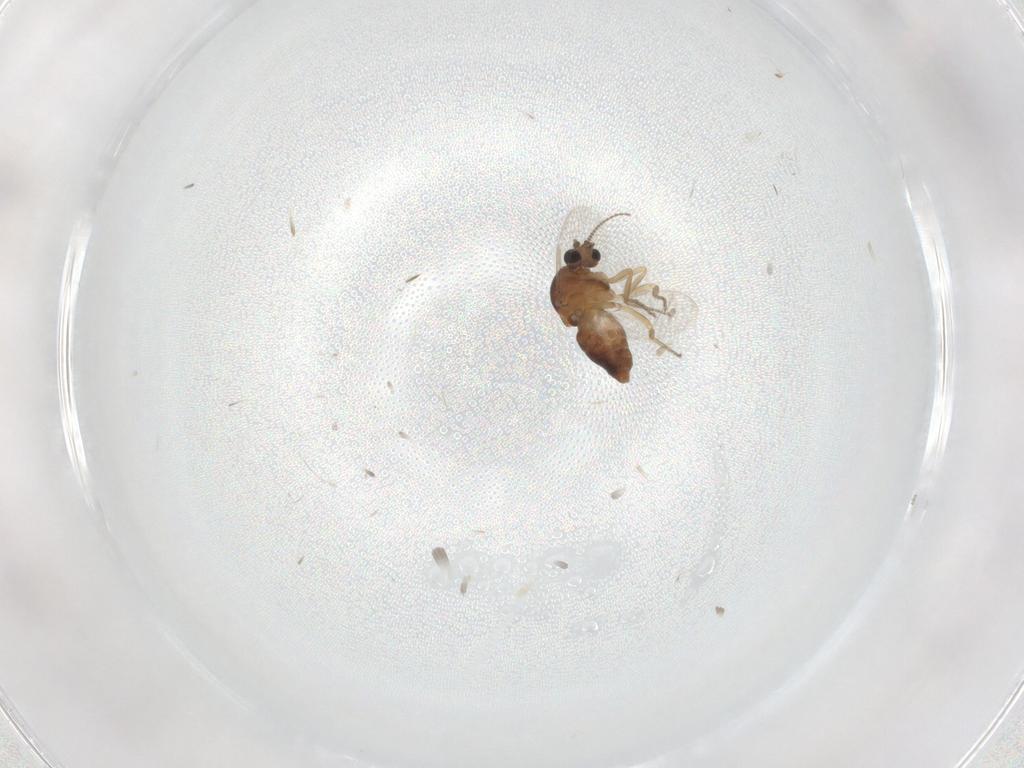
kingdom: Animalia
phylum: Arthropoda
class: Insecta
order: Diptera
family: Ceratopogonidae
